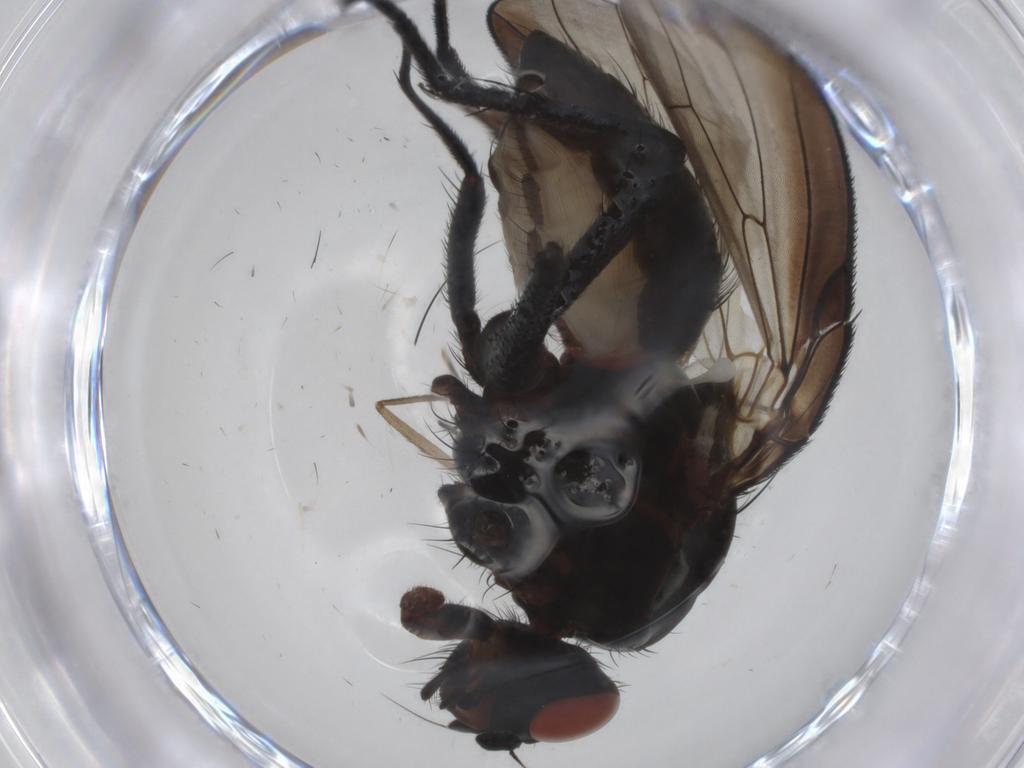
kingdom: Animalia
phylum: Arthropoda
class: Insecta
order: Diptera
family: Anthomyiidae
